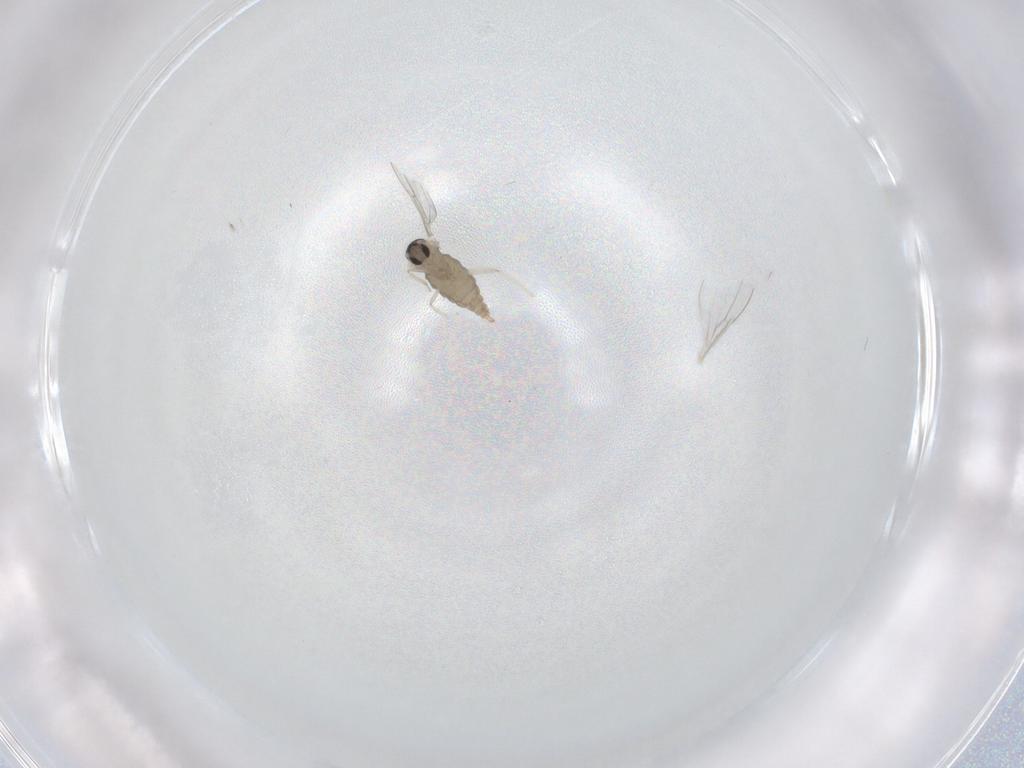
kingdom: Animalia
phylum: Arthropoda
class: Insecta
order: Diptera
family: Cecidomyiidae
